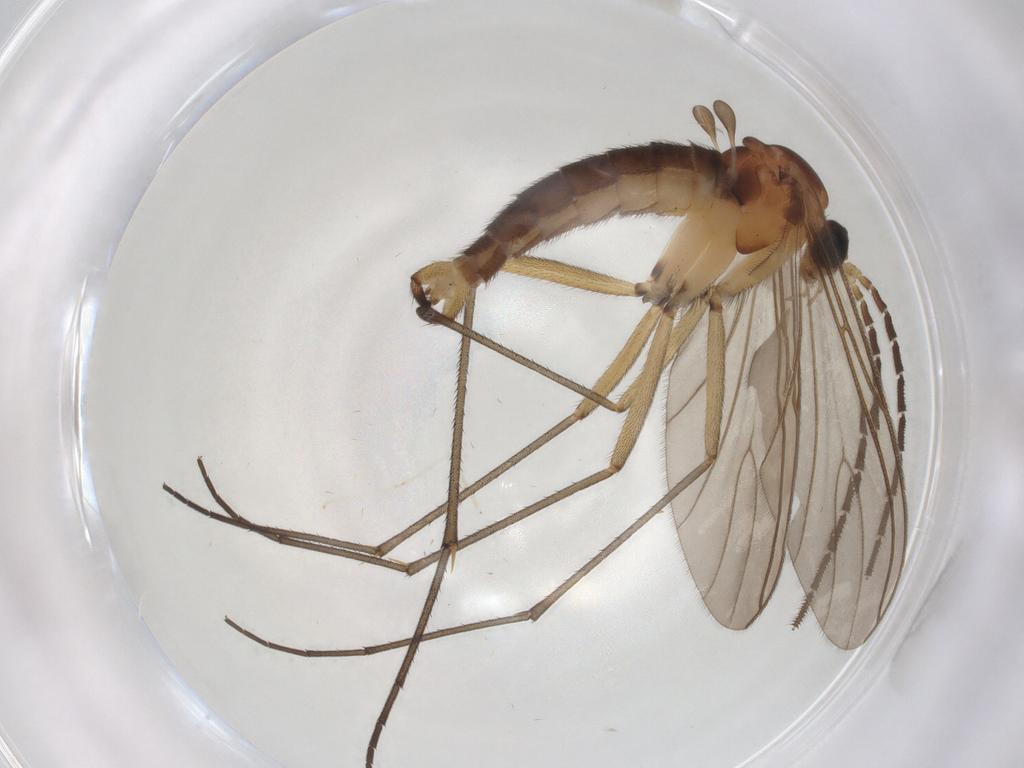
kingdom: Animalia
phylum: Arthropoda
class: Insecta
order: Diptera
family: Sciaridae
